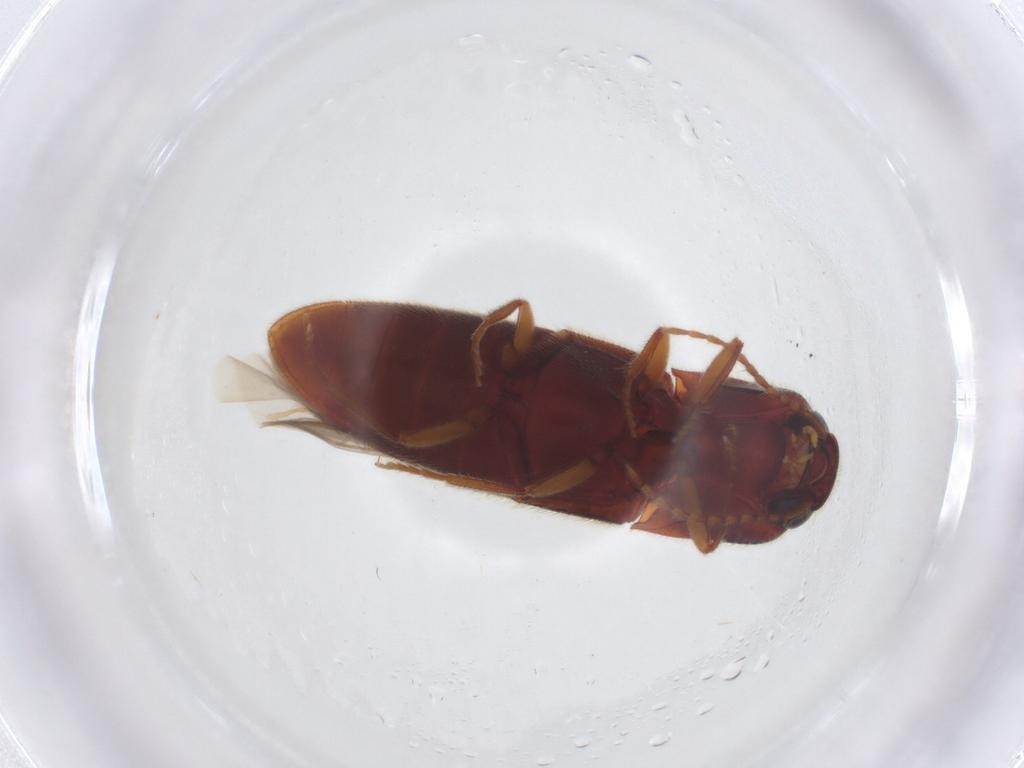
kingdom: Animalia
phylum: Arthropoda
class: Insecta
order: Coleoptera
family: Elateridae
